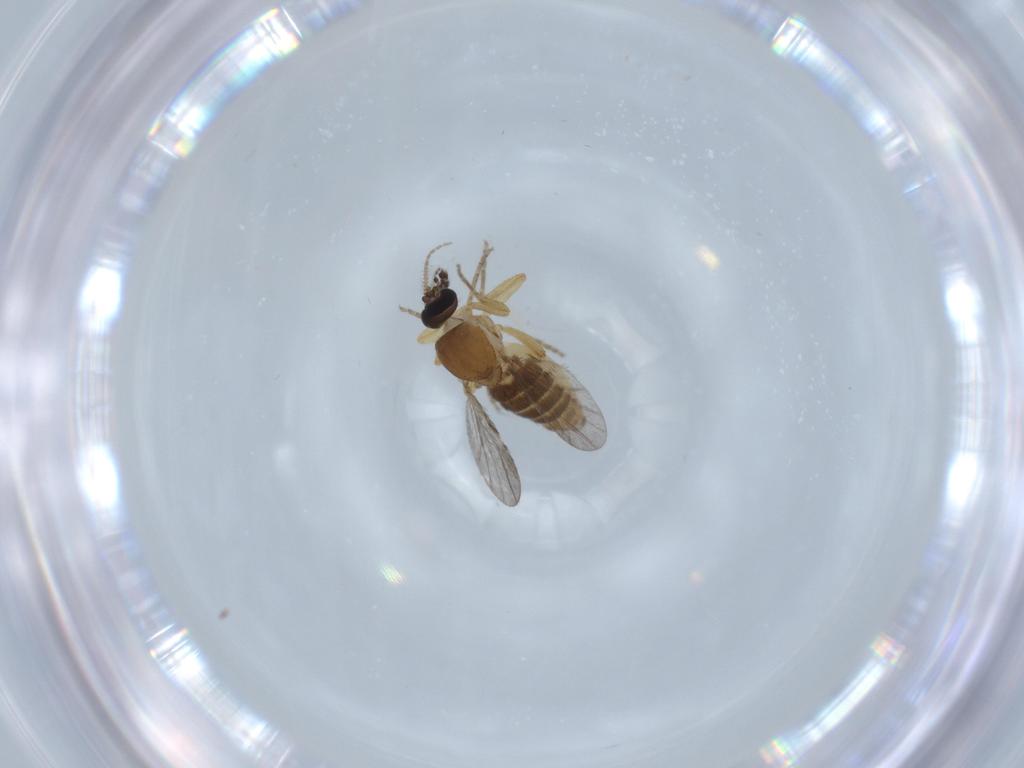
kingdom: Animalia
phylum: Arthropoda
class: Insecta
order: Diptera
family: Ceratopogonidae
